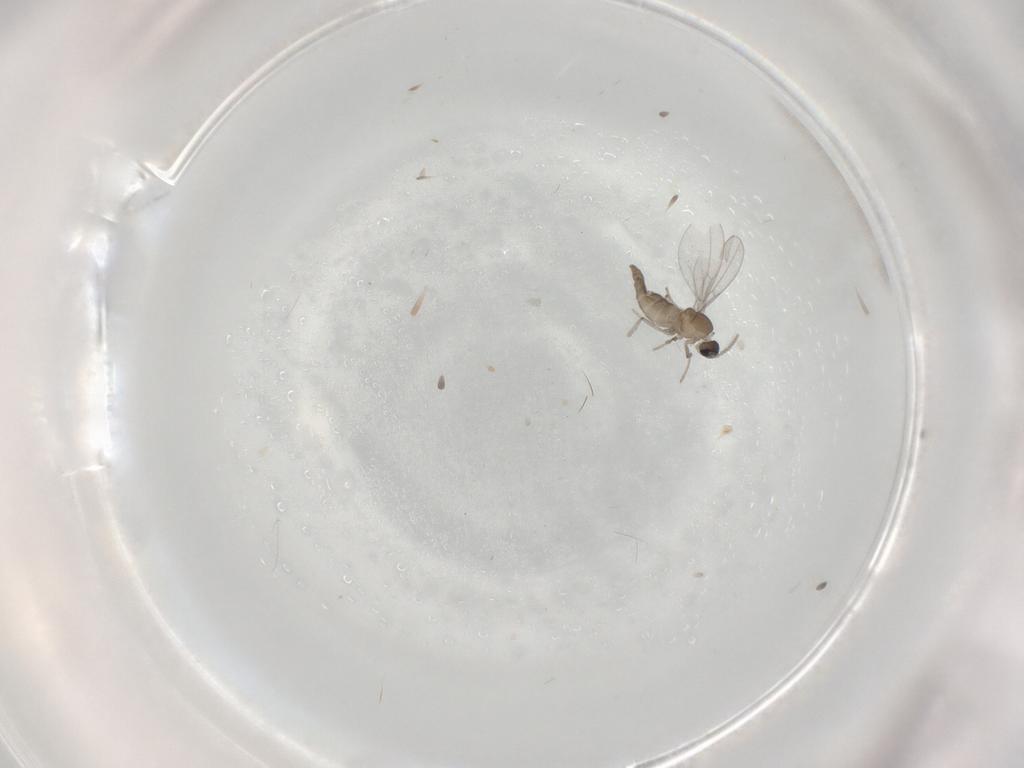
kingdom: Animalia
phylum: Arthropoda
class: Insecta
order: Diptera
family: Cecidomyiidae
